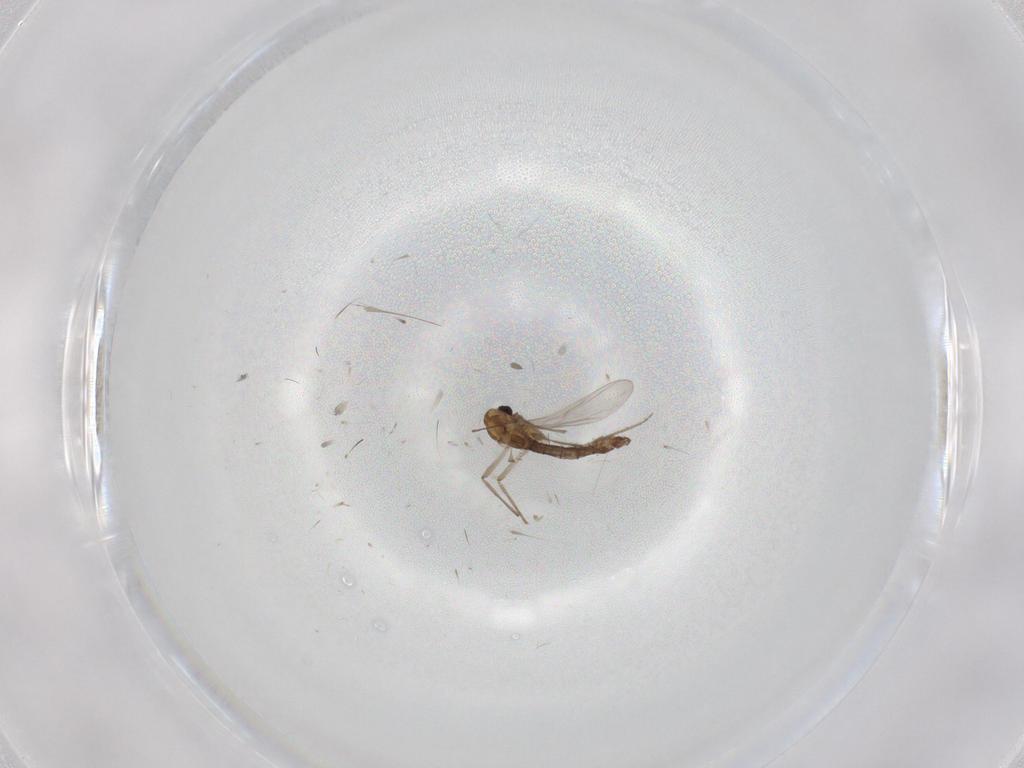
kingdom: Animalia
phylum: Arthropoda
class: Insecta
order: Diptera
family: Chironomidae
